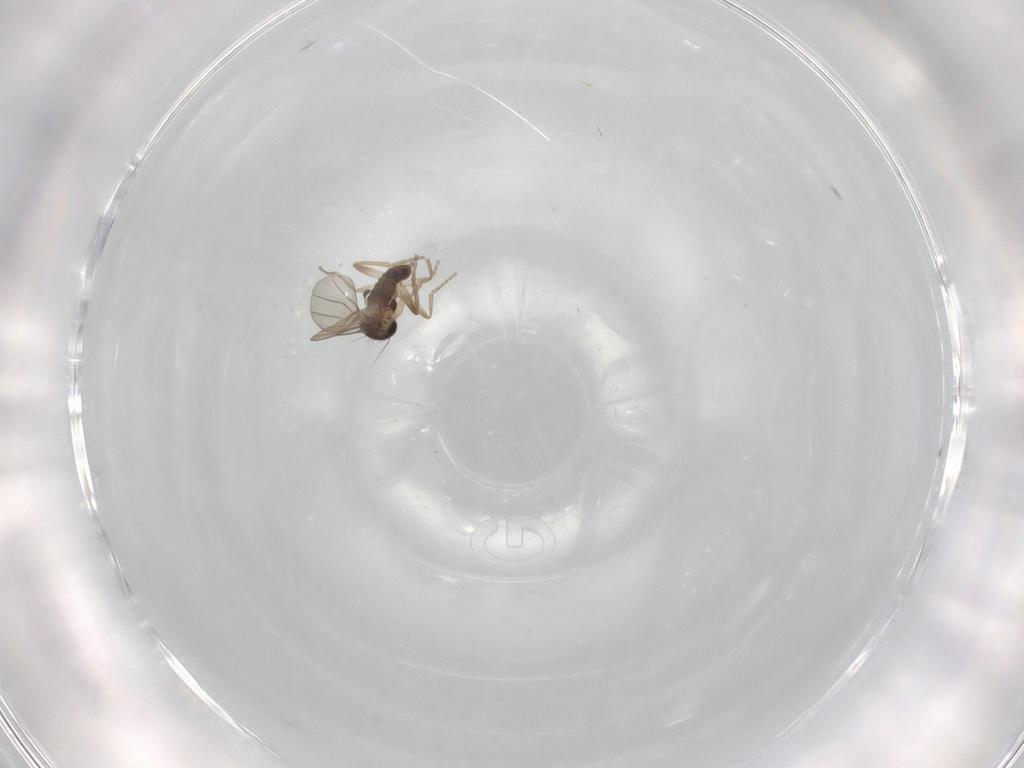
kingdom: Animalia
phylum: Arthropoda
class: Insecta
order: Diptera
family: Phoridae
